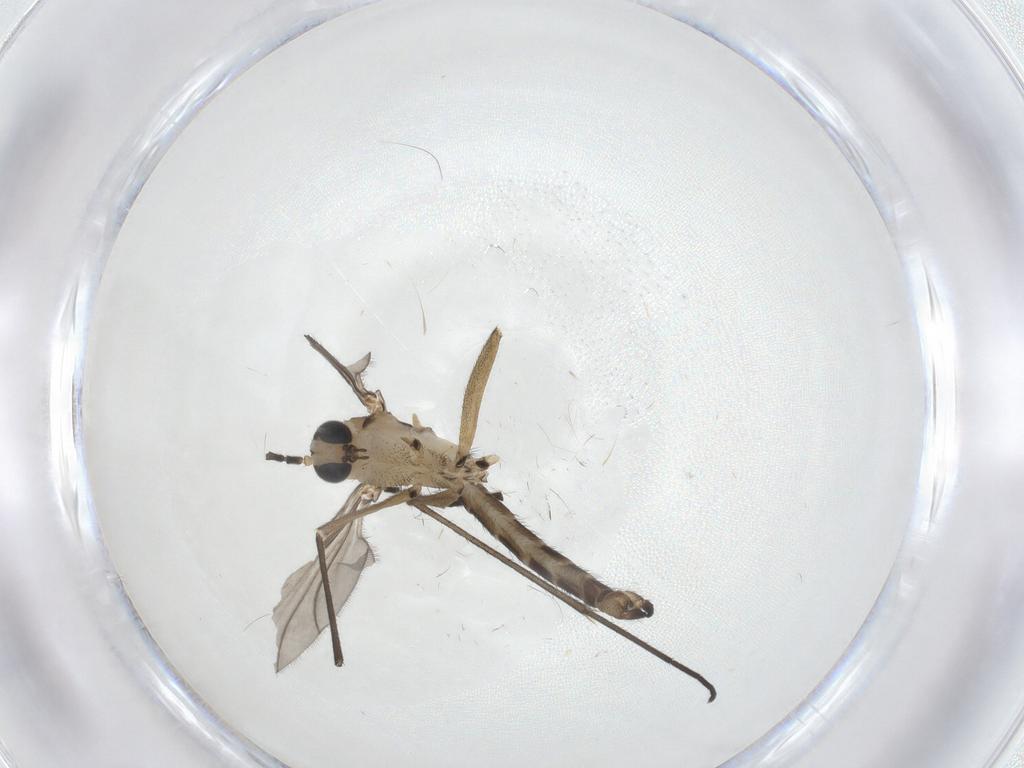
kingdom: Animalia
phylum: Arthropoda
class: Insecta
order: Diptera
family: Sciaridae
